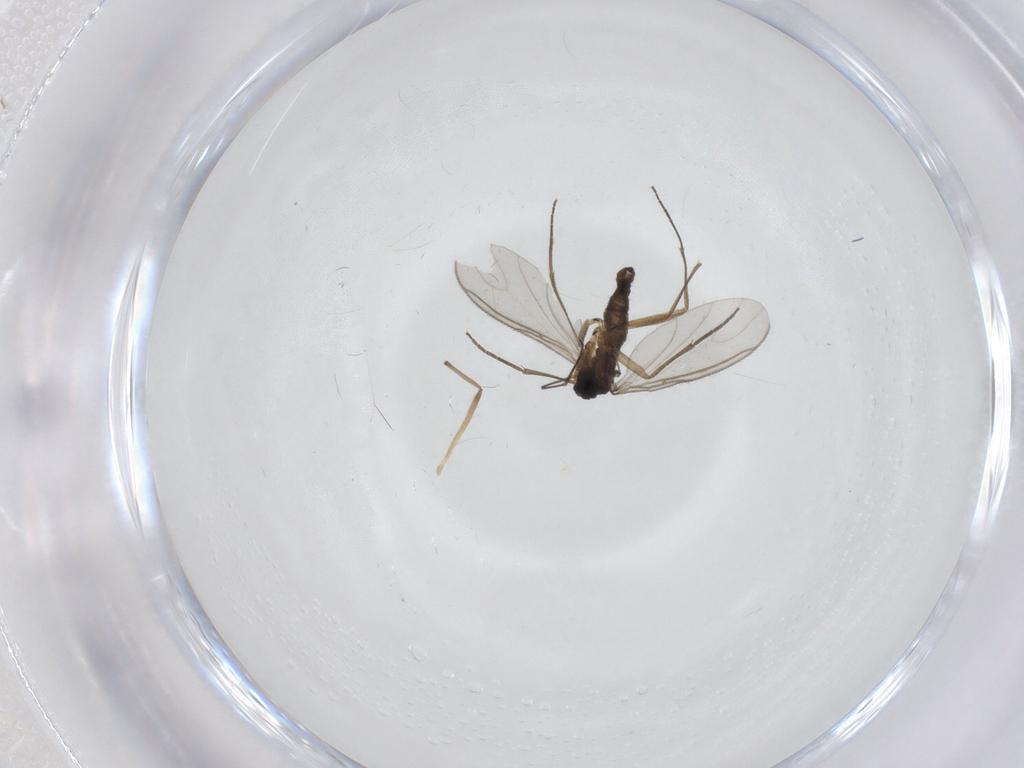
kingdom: Animalia
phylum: Arthropoda
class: Insecta
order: Diptera
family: Sciaridae
